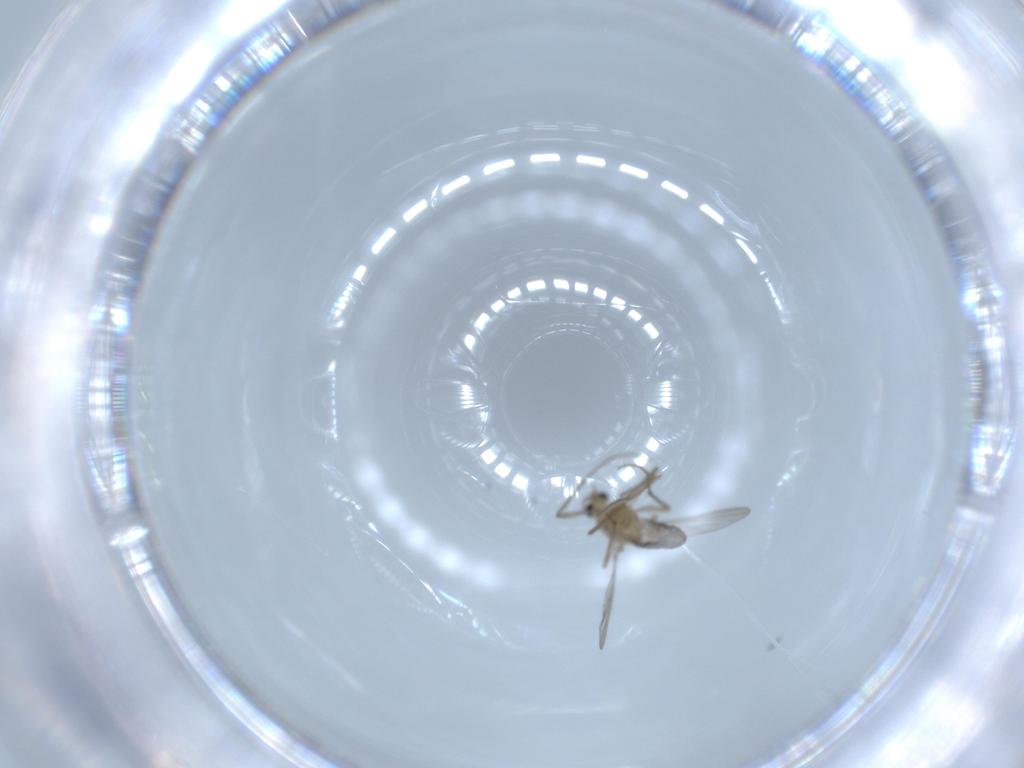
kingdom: Animalia
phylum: Arthropoda
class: Insecta
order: Diptera
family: Chironomidae
